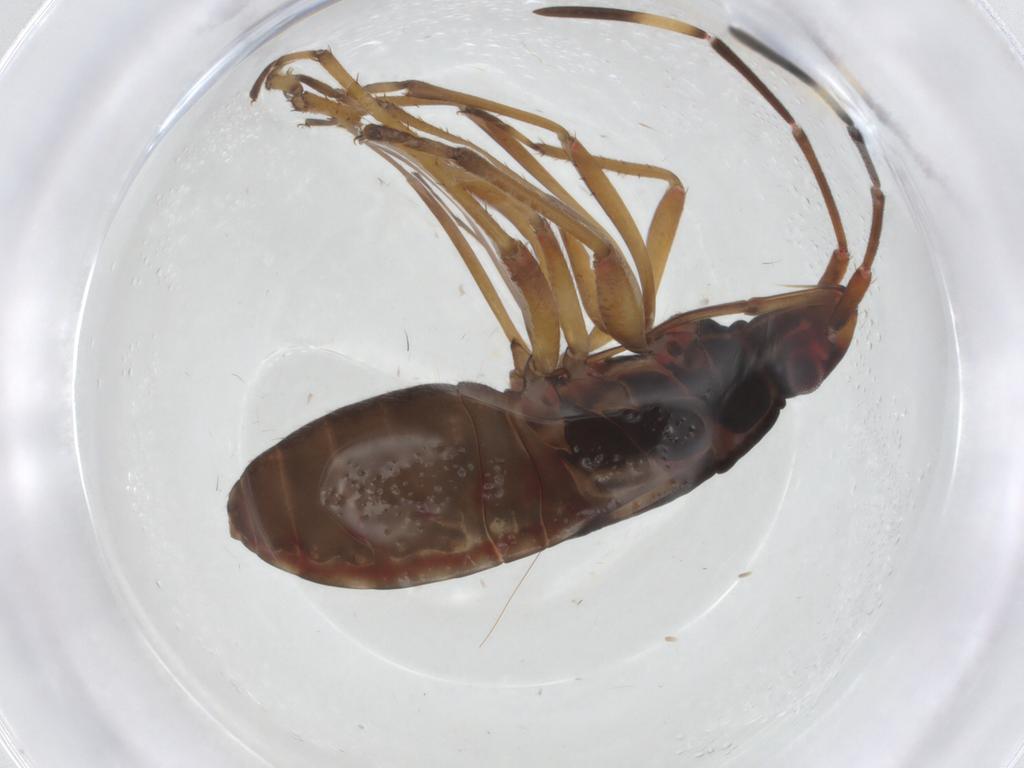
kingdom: Animalia
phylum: Arthropoda
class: Insecta
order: Hemiptera
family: Rhyparochromidae
